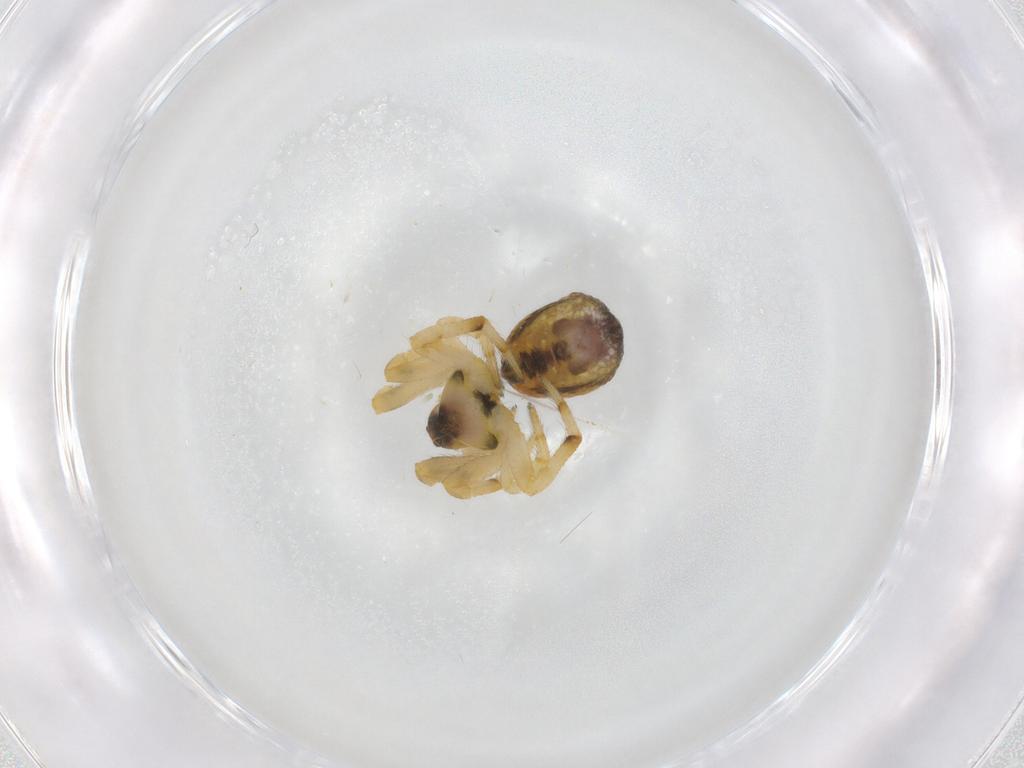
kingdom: Animalia
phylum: Arthropoda
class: Arachnida
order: Araneae
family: Araneidae
